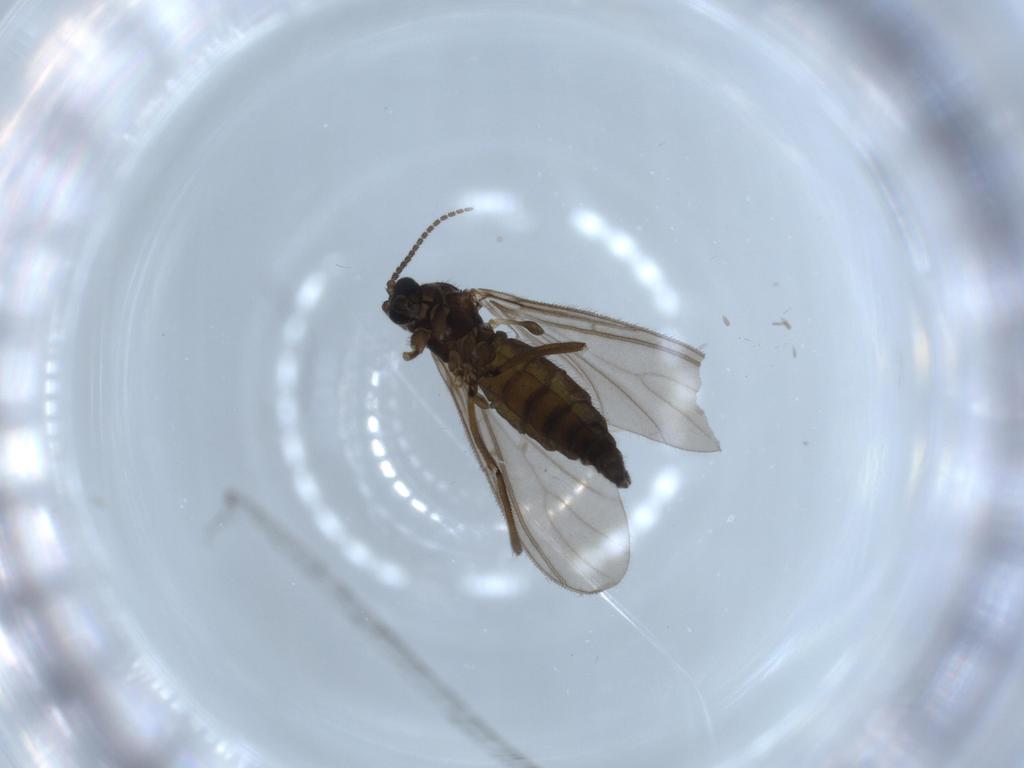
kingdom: Animalia
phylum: Arthropoda
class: Insecta
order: Diptera
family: Sciaridae
